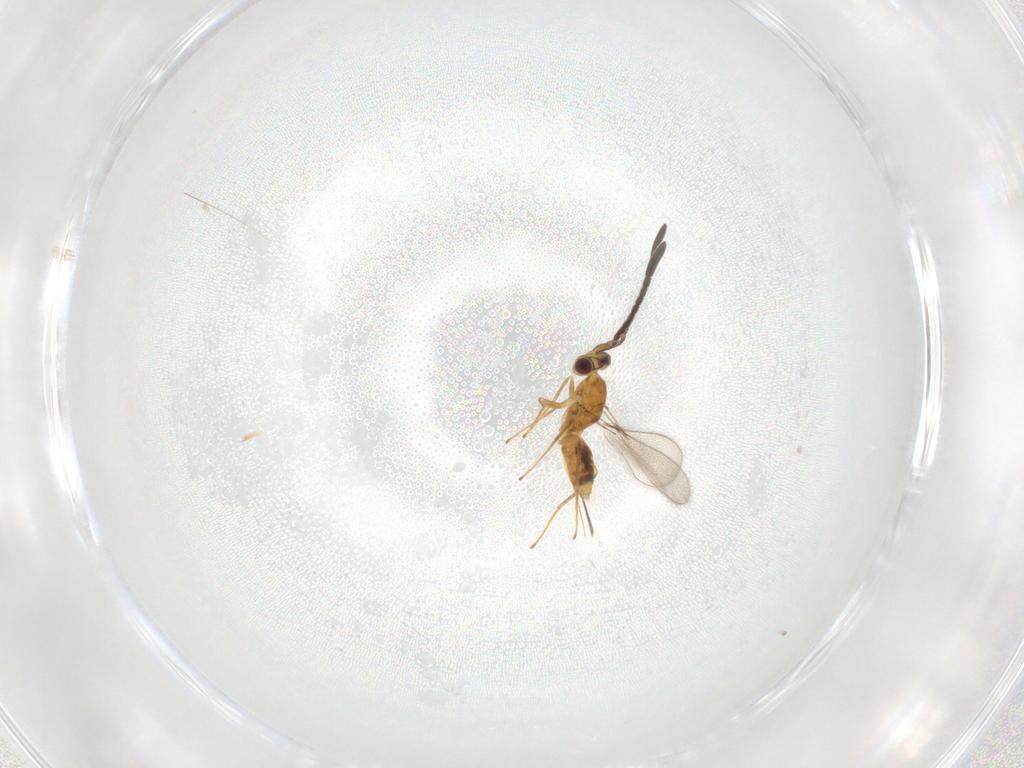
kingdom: Animalia
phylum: Arthropoda
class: Insecta
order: Hymenoptera
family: Mymaridae
